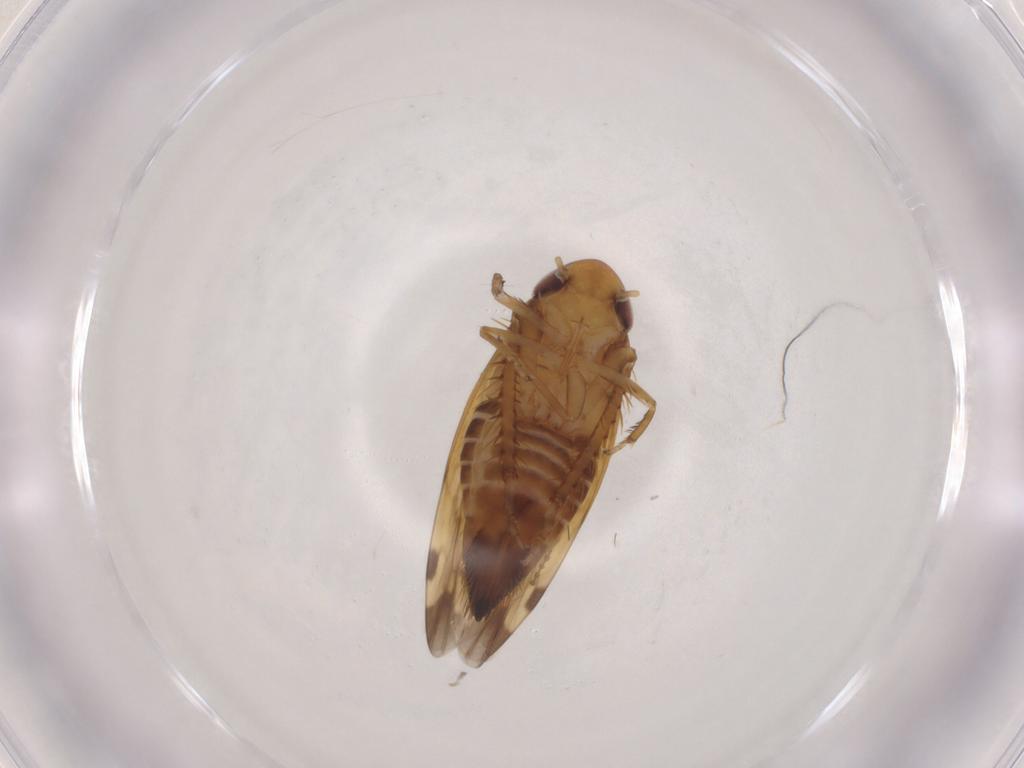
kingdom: Animalia
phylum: Arthropoda
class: Insecta
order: Hemiptera
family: Cicadellidae
